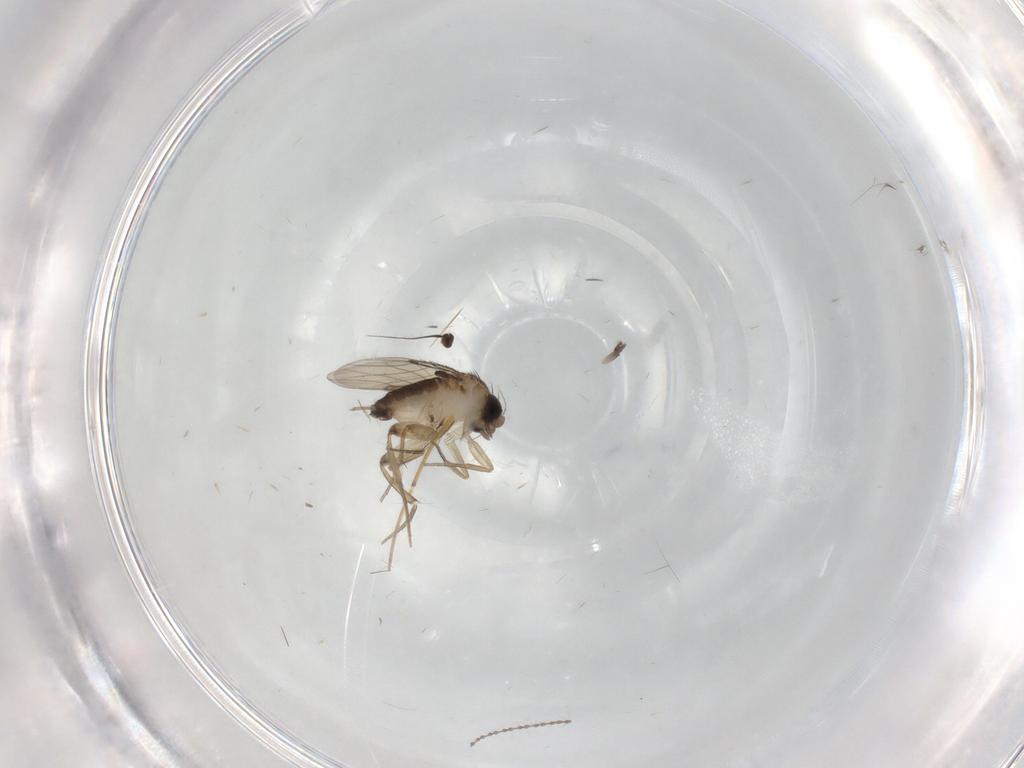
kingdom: Animalia
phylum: Arthropoda
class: Insecta
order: Diptera
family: Phoridae
